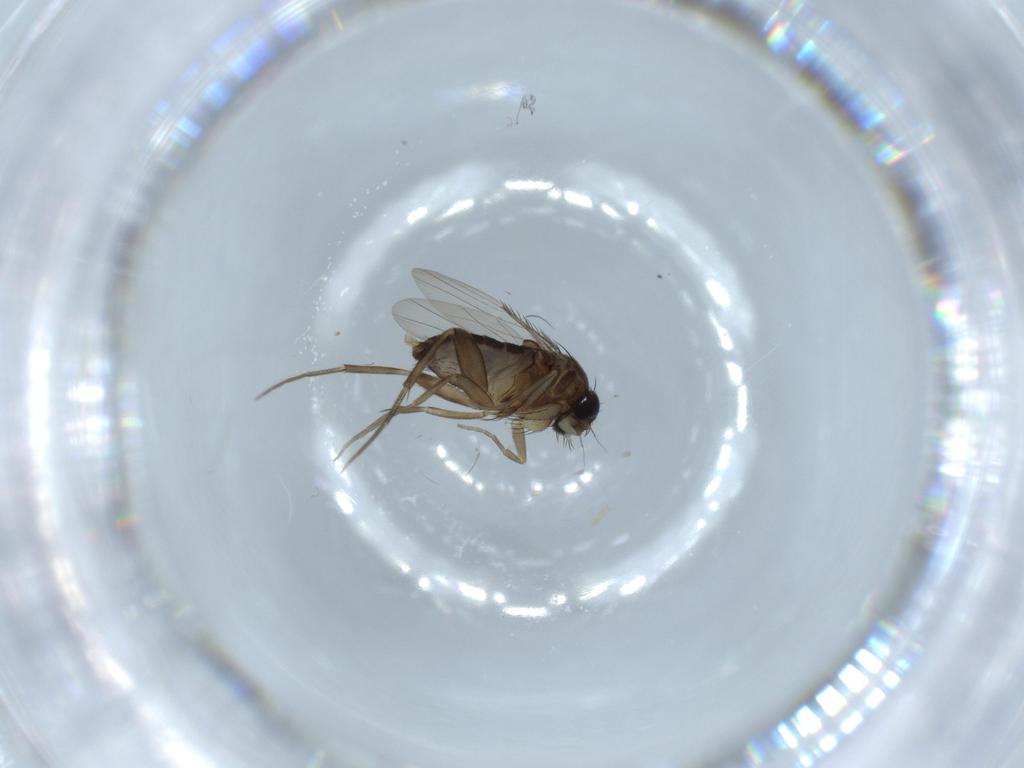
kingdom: Animalia
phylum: Arthropoda
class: Insecta
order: Diptera
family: Phoridae
